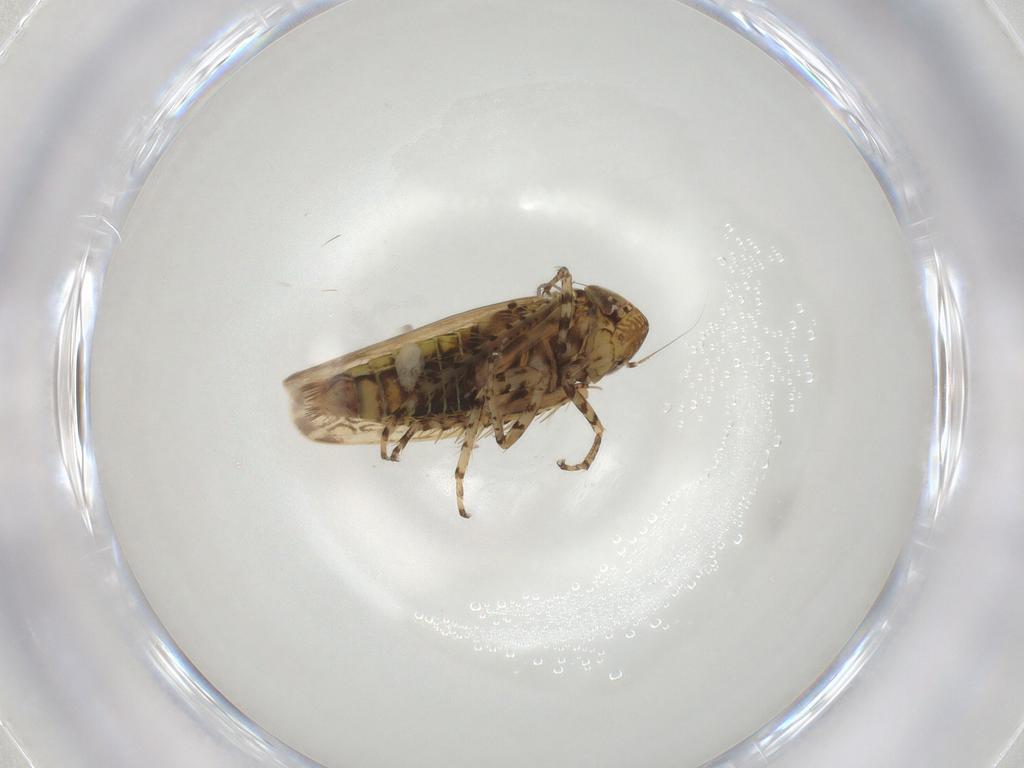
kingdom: Animalia
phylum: Arthropoda
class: Insecta
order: Hemiptera
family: Cicadellidae
